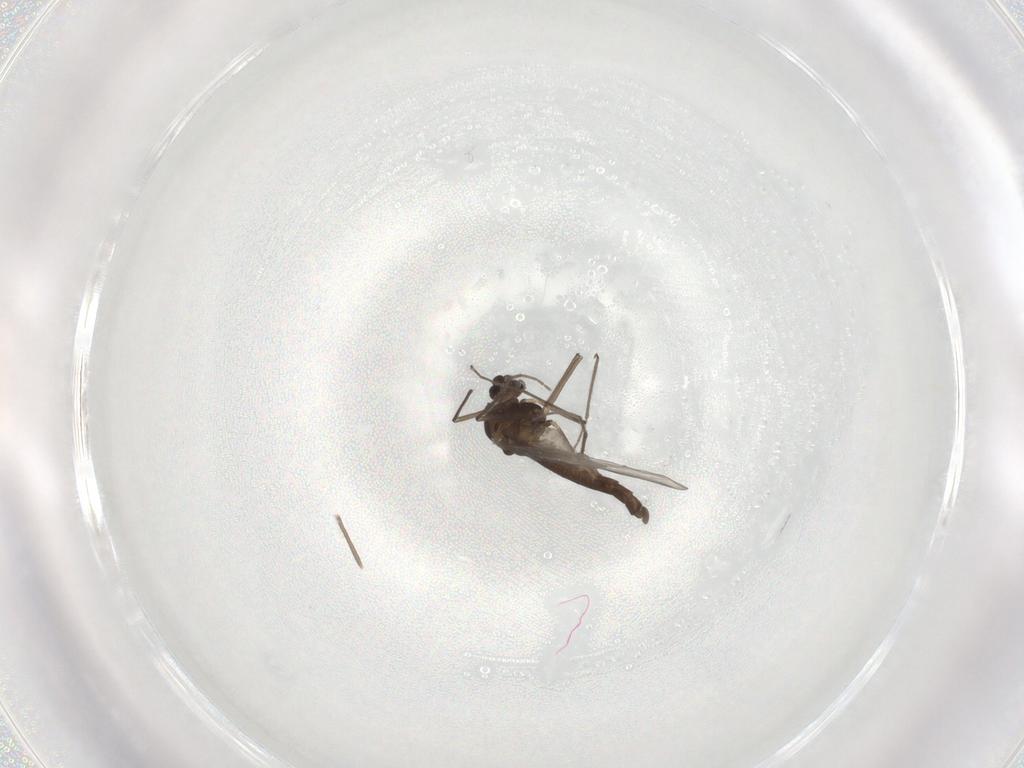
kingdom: Animalia
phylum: Arthropoda
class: Insecta
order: Diptera
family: Chironomidae
